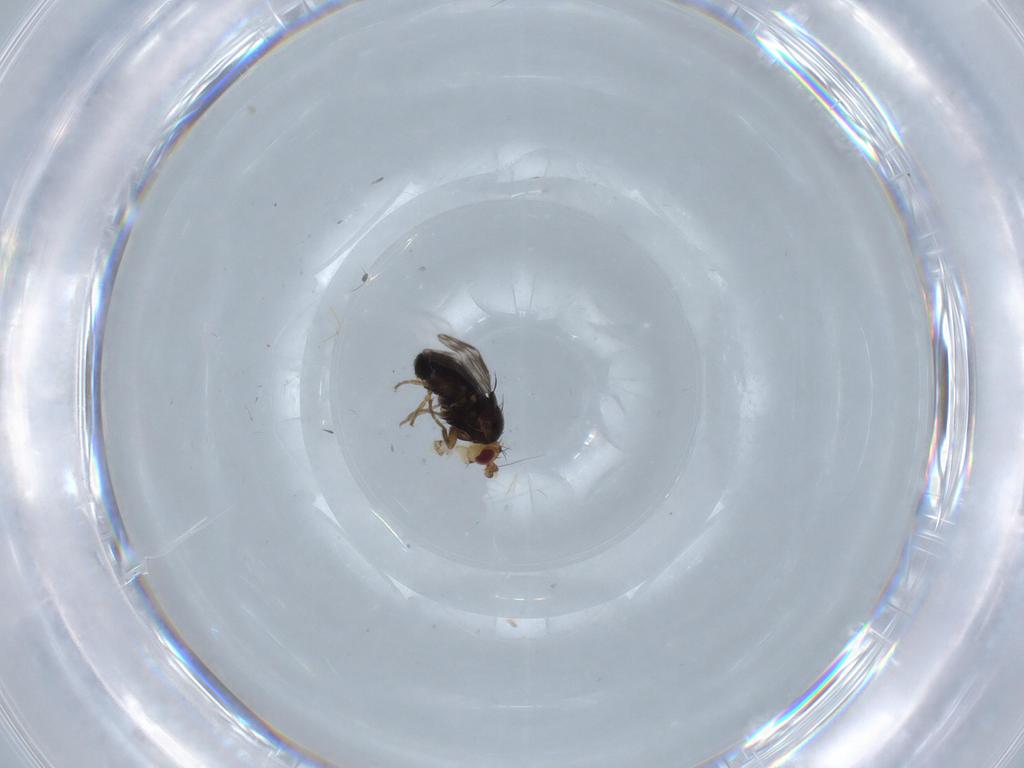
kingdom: Animalia
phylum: Arthropoda
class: Insecta
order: Diptera
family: Sphaeroceridae
